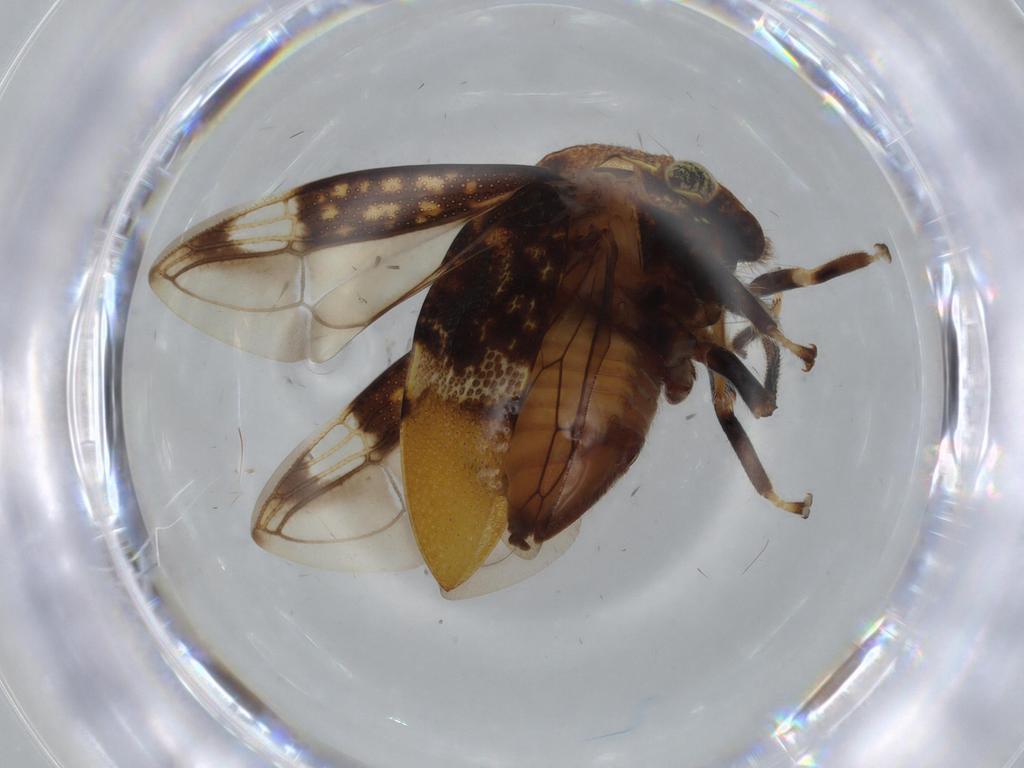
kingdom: Animalia
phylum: Arthropoda
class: Insecta
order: Hemiptera
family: Membracidae
